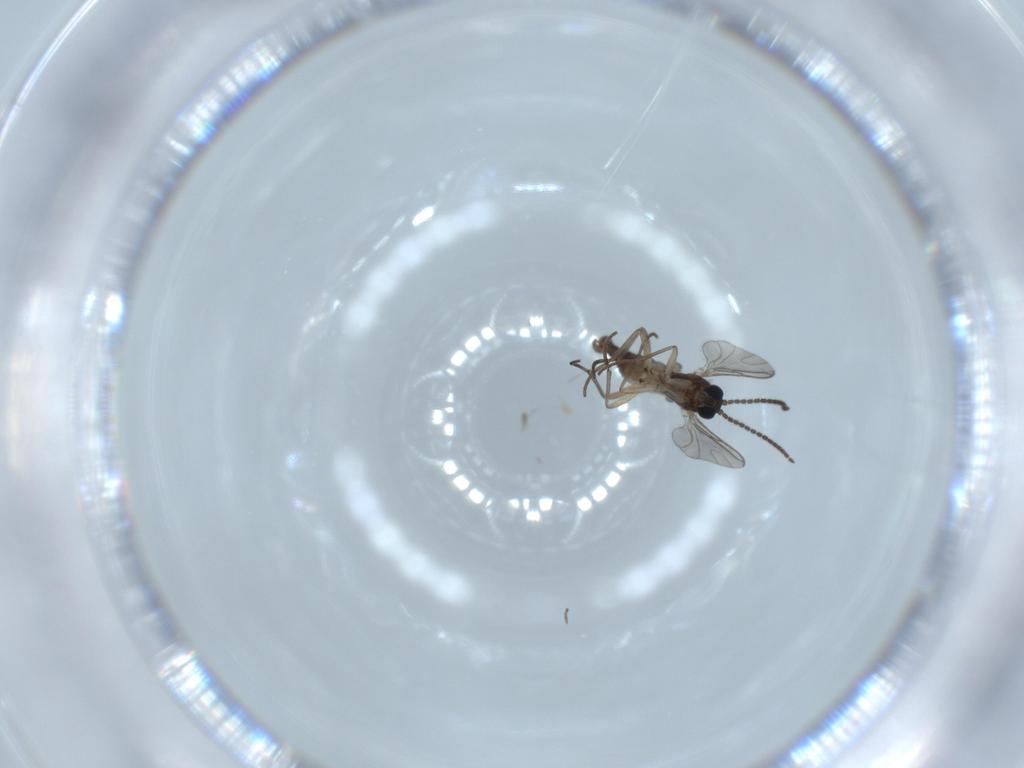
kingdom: Animalia
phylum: Arthropoda
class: Insecta
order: Diptera
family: Sciaridae
